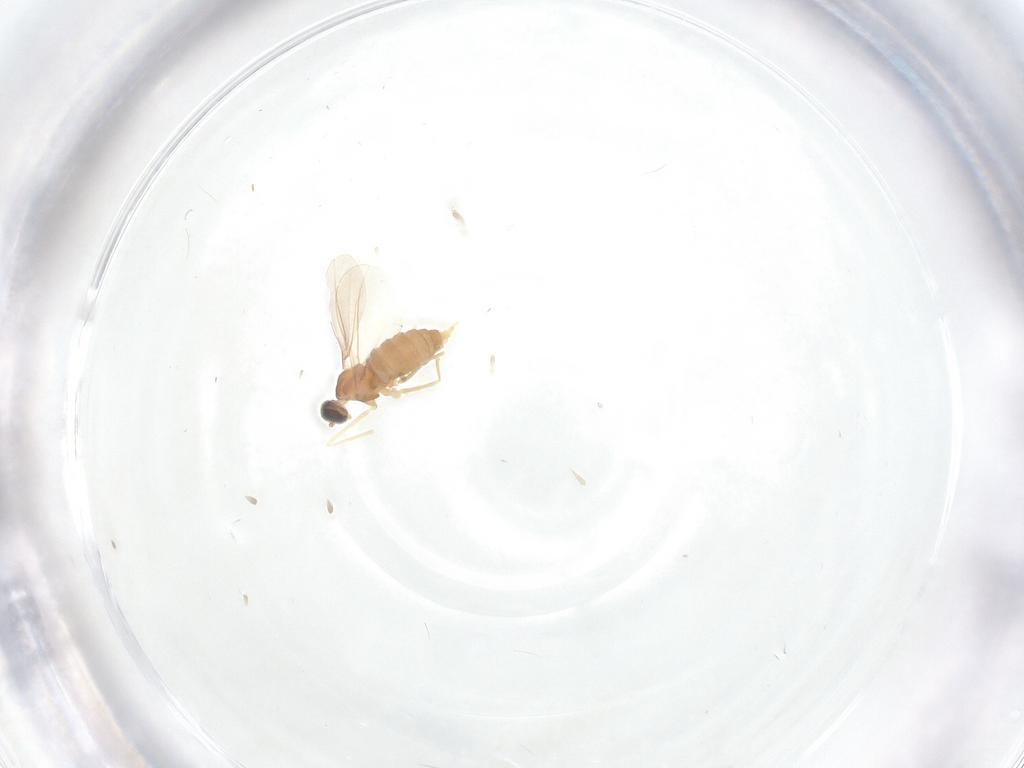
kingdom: Animalia
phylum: Arthropoda
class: Insecta
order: Diptera
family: Cecidomyiidae
